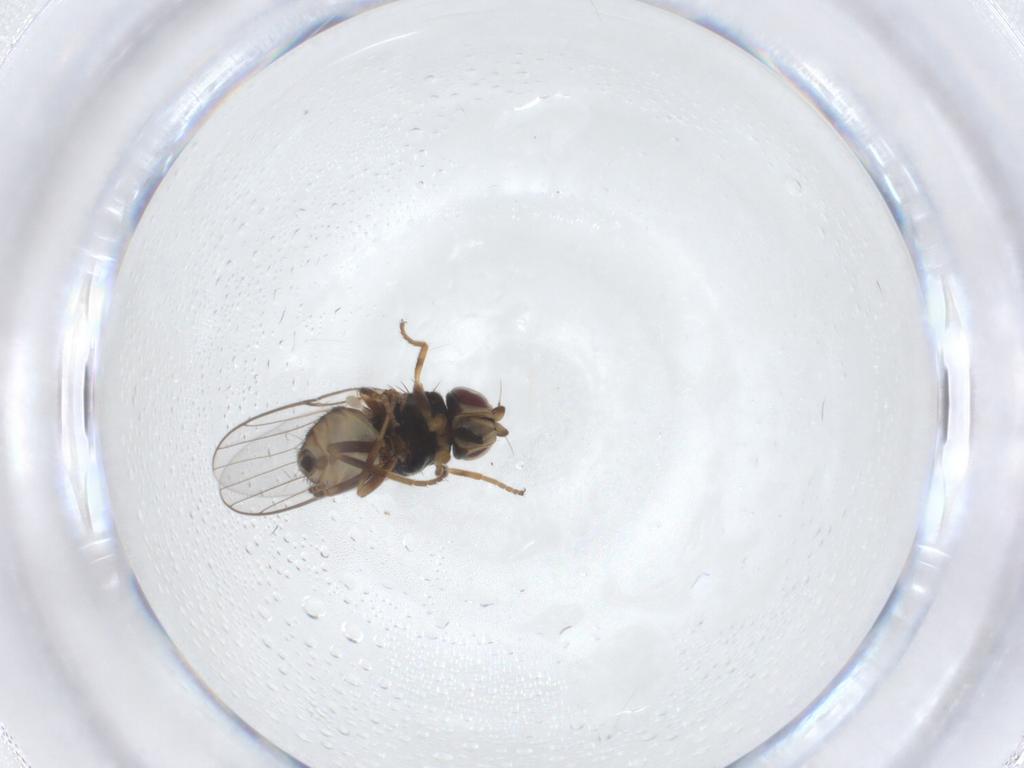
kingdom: Animalia
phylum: Arthropoda
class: Insecta
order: Diptera
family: Chloropidae
